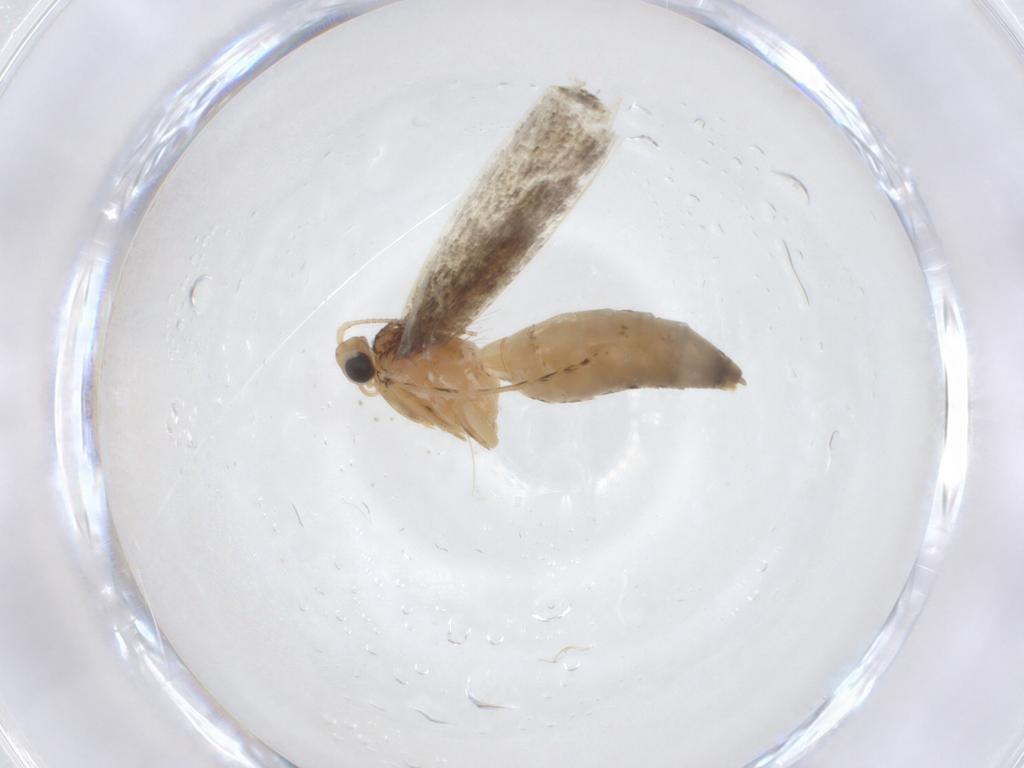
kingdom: Animalia
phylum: Arthropoda
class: Insecta
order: Lepidoptera
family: Tineidae
